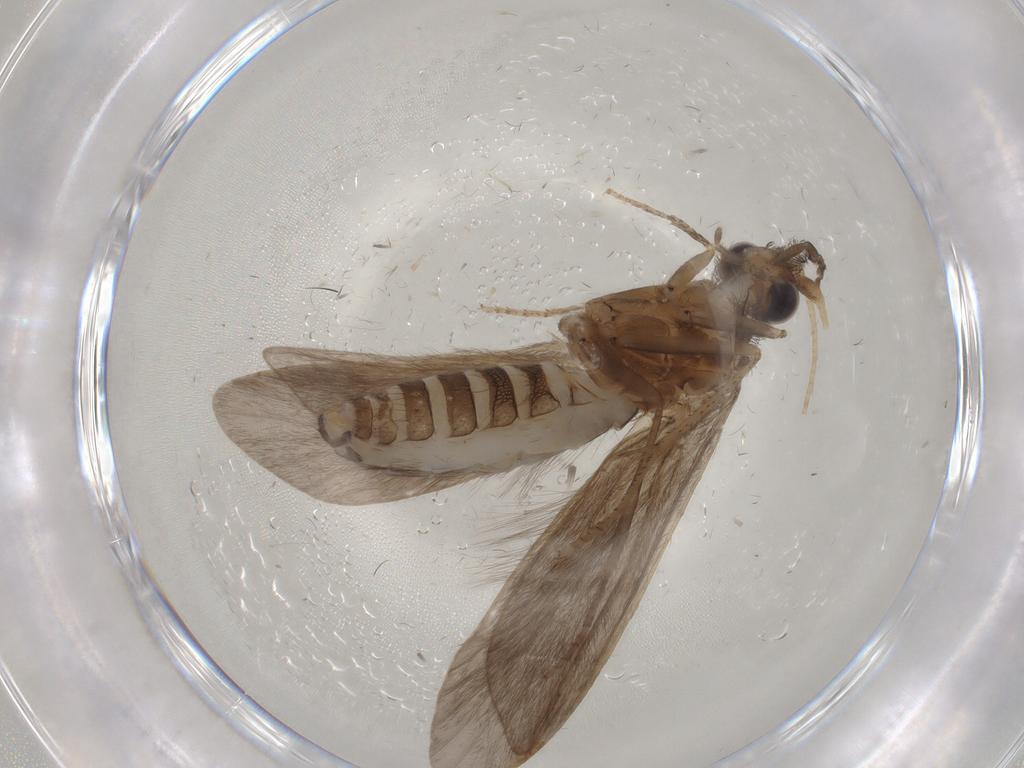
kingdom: Animalia
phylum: Arthropoda
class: Insecta
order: Trichoptera
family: Helicopsychidae
